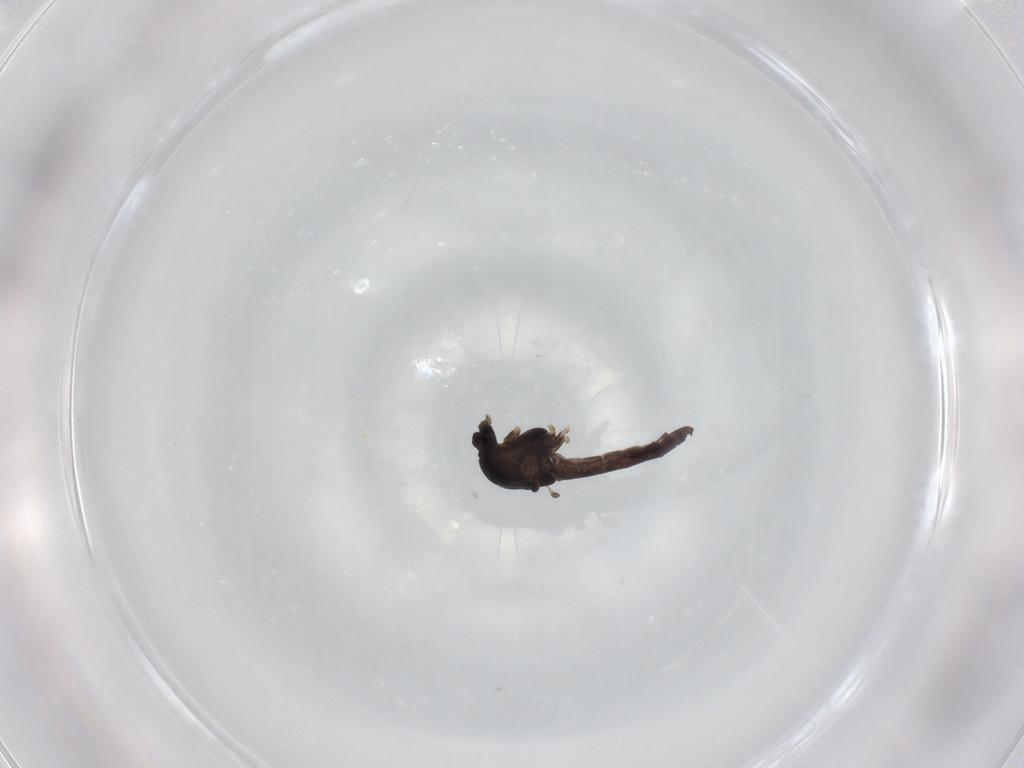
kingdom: Animalia
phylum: Arthropoda
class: Insecta
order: Diptera
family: Chironomidae
